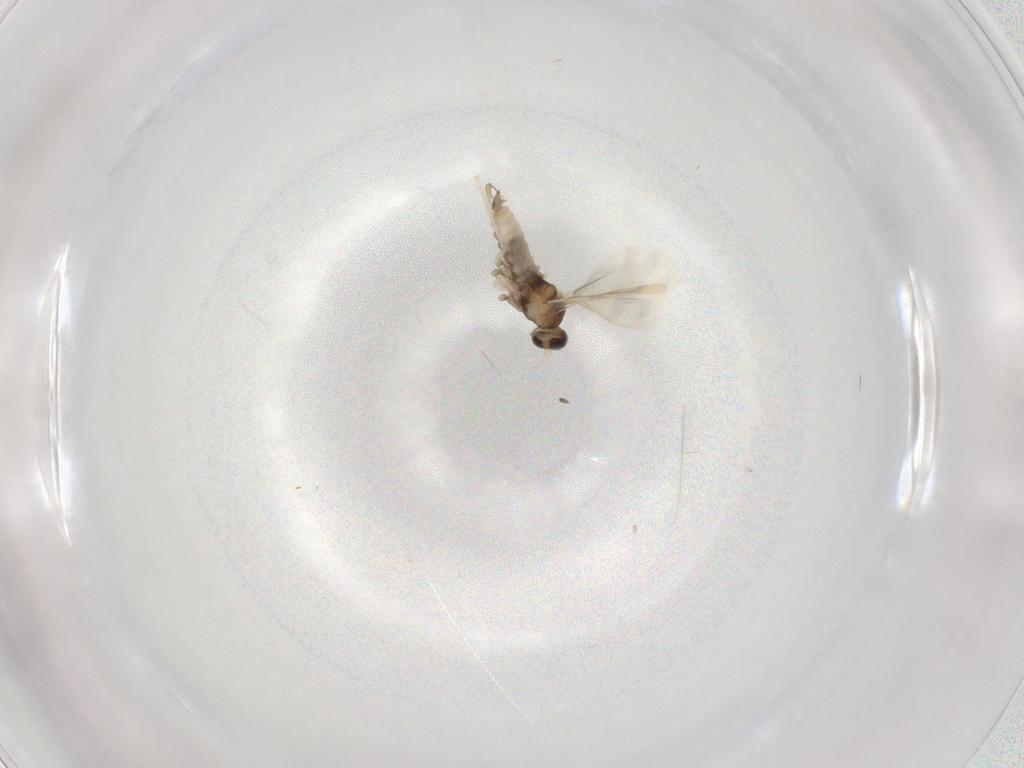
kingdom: Animalia
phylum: Arthropoda
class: Insecta
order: Diptera
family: Cecidomyiidae
